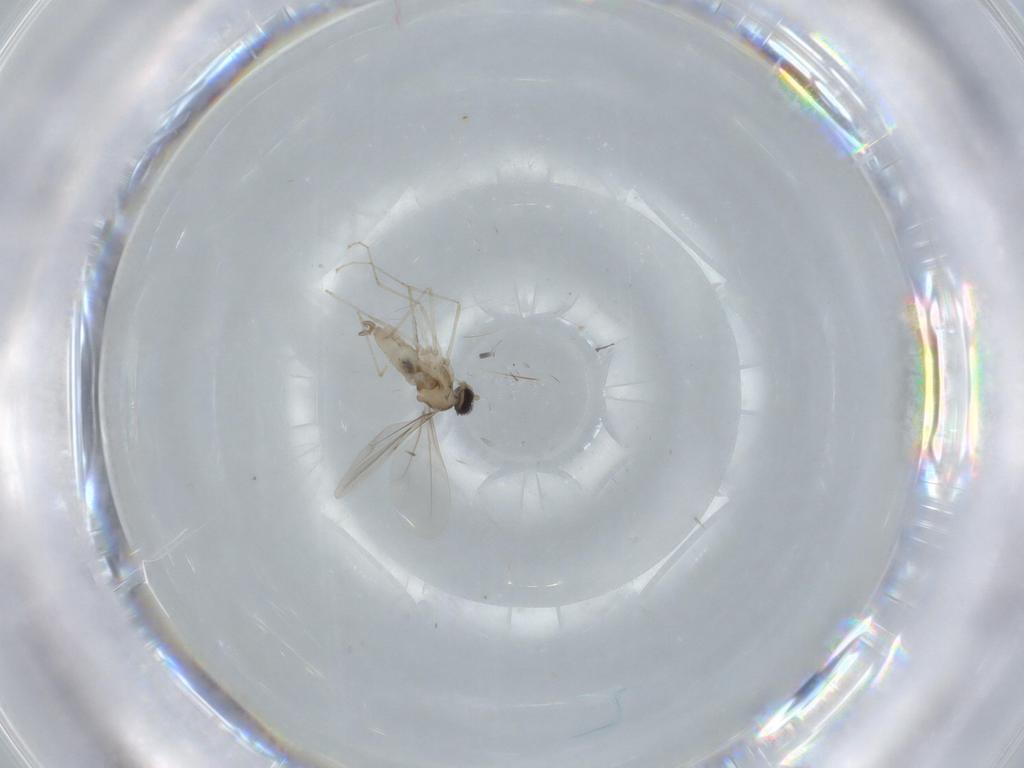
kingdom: Animalia
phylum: Arthropoda
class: Insecta
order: Diptera
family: Cecidomyiidae
